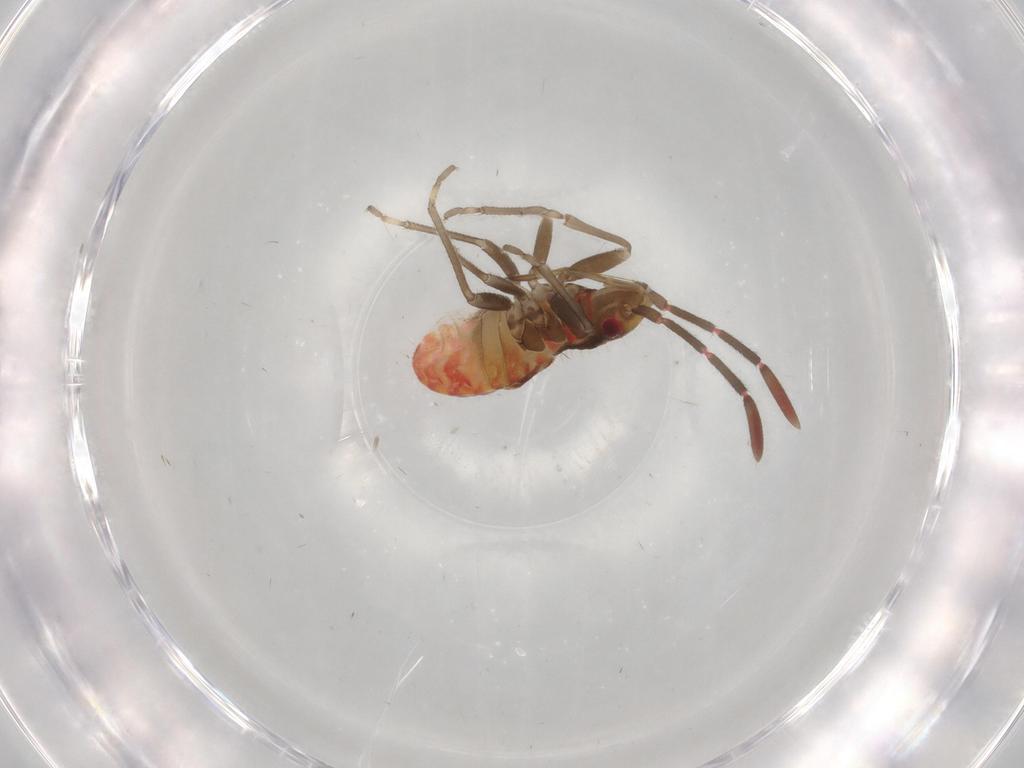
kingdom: Animalia
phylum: Arthropoda
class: Insecta
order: Hemiptera
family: Rhyparochromidae
